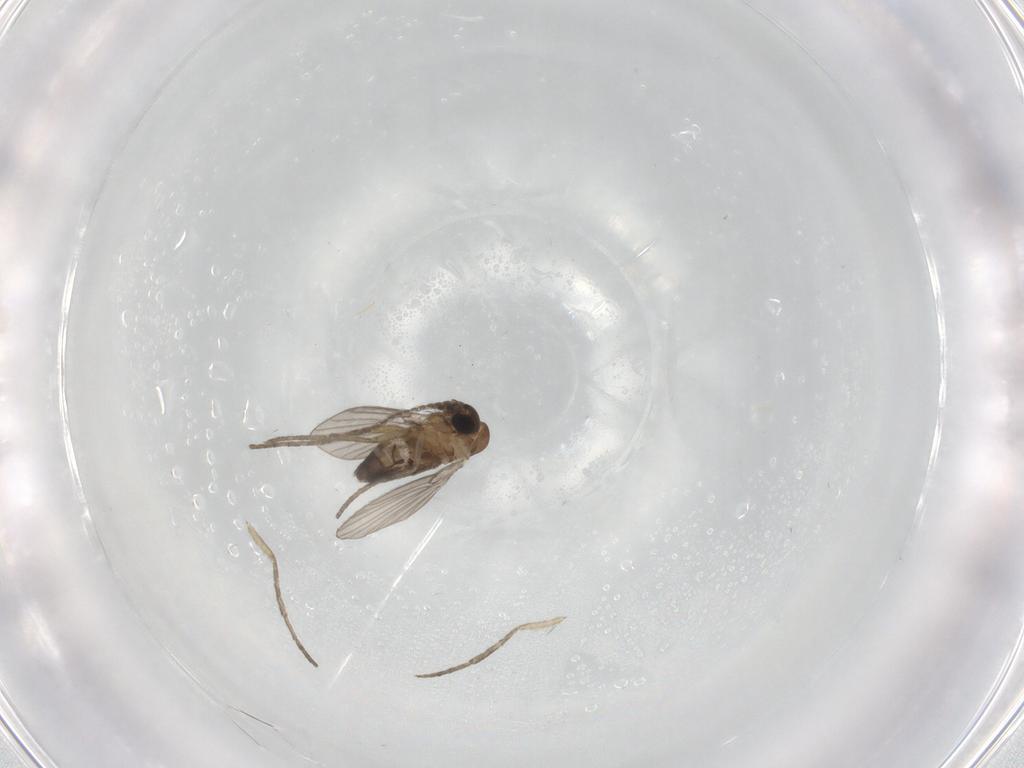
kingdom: Animalia
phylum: Arthropoda
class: Insecta
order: Diptera
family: Psychodidae
